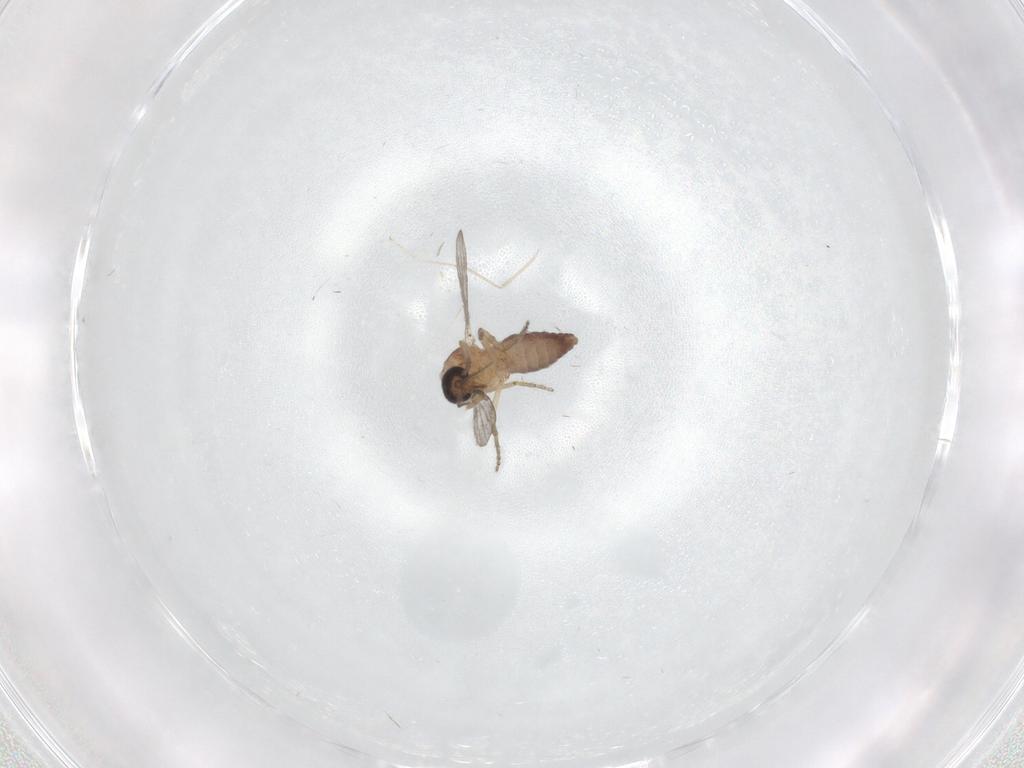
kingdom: Animalia
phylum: Arthropoda
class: Insecta
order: Diptera
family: Ceratopogonidae
